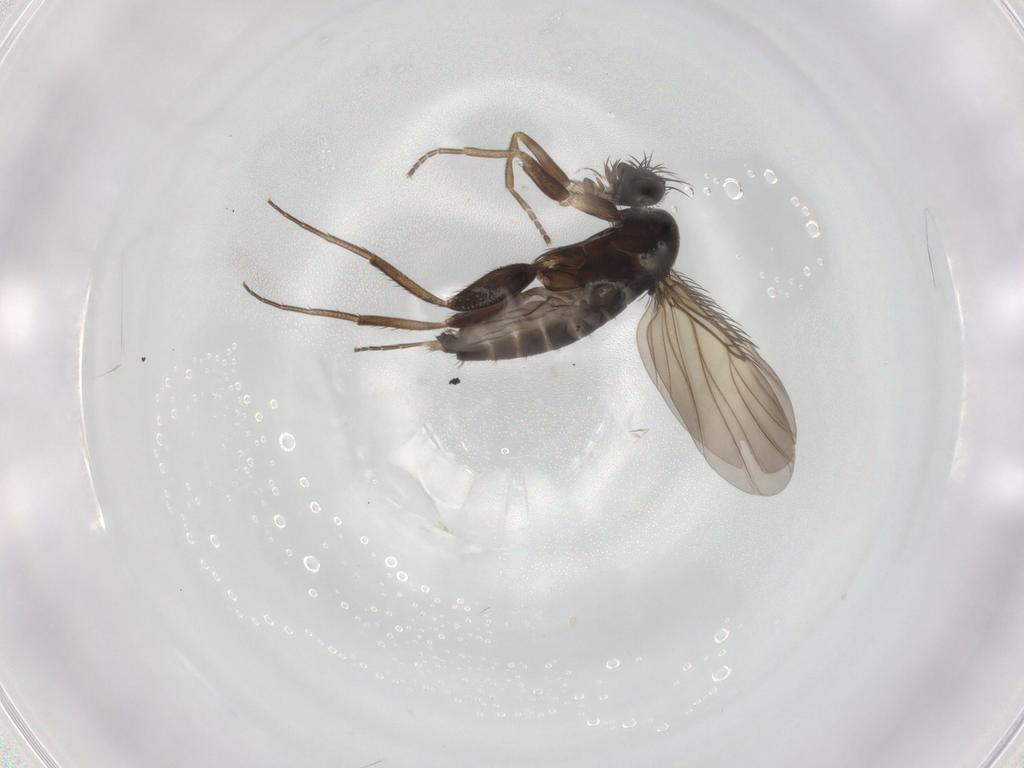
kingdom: Animalia
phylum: Arthropoda
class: Insecta
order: Diptera
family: Phoridae
